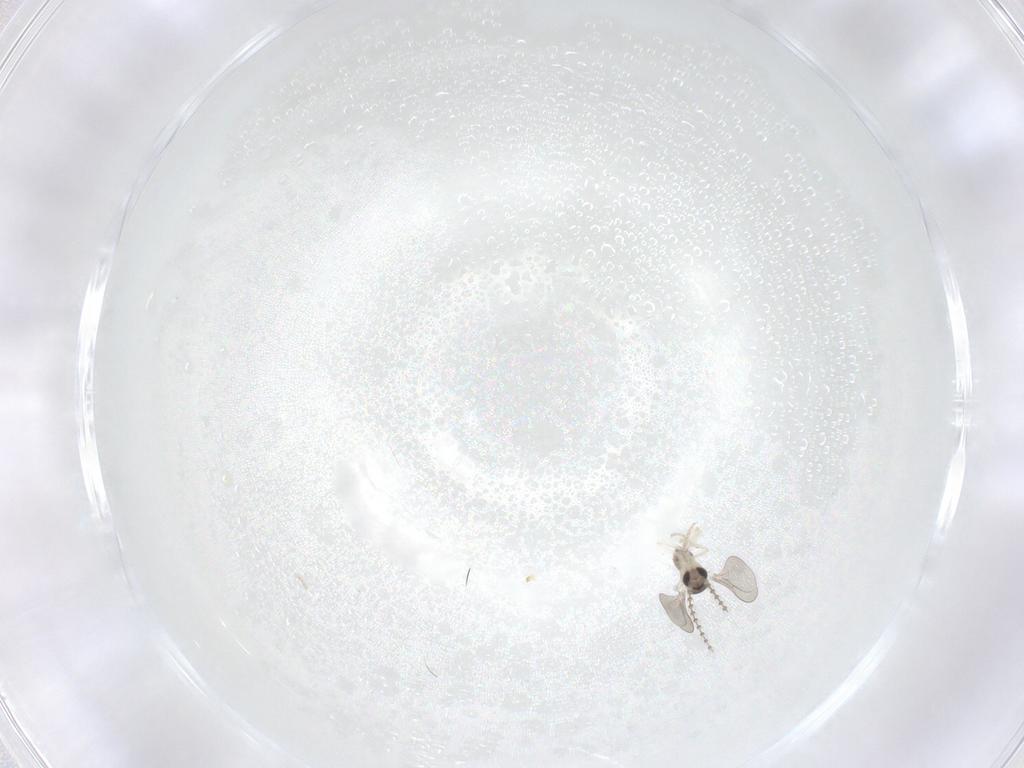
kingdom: Animalia
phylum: Arthropoda
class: Insecta
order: Diptera
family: Cecidomyiidae
